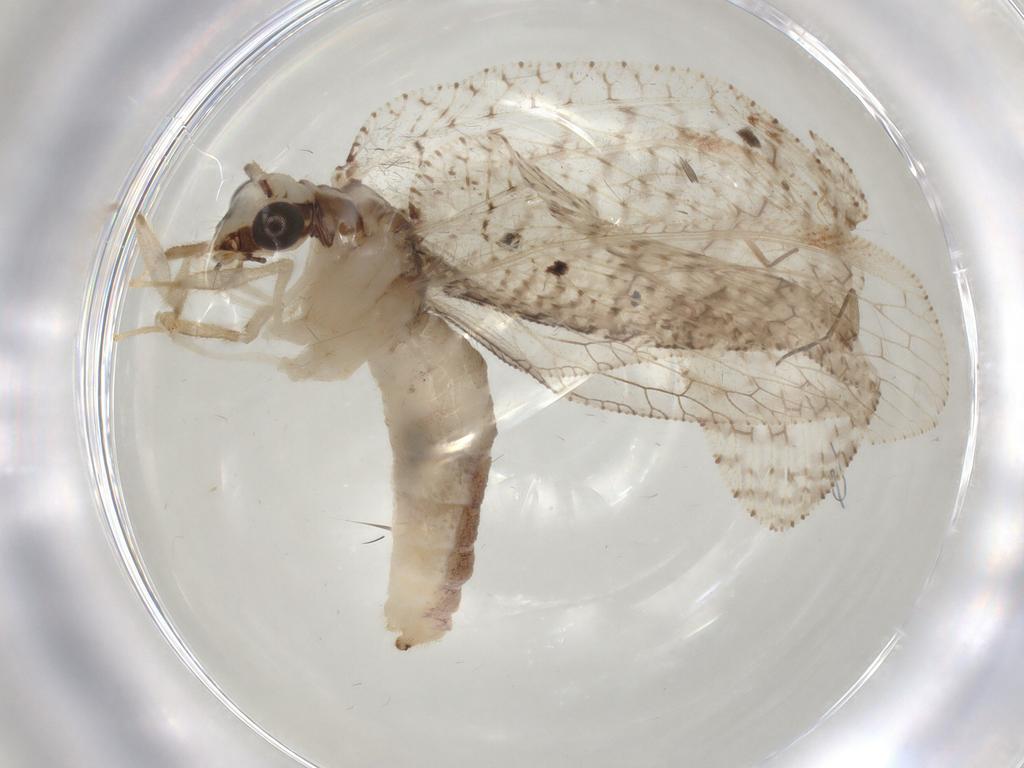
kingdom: Animalia
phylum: Arthropoda
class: Insecta
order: Neuroptera
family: Hemerobiidae
